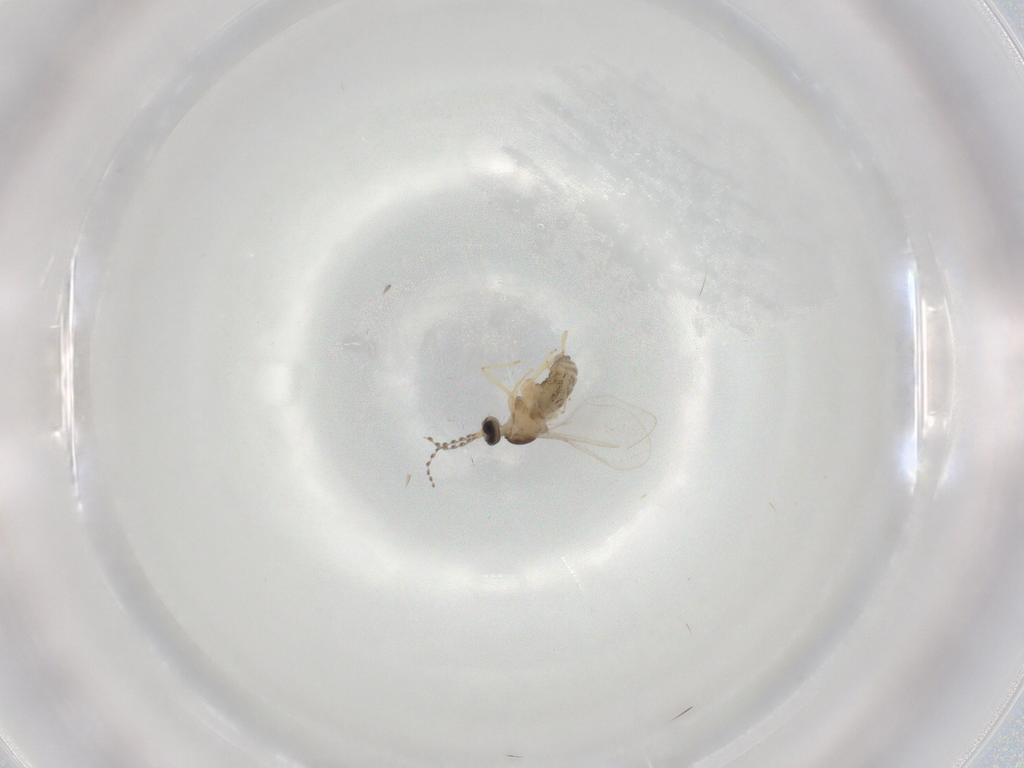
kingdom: Animalia
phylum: Arthropoda
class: Insecta
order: Diptera
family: Cecidomyiidae
